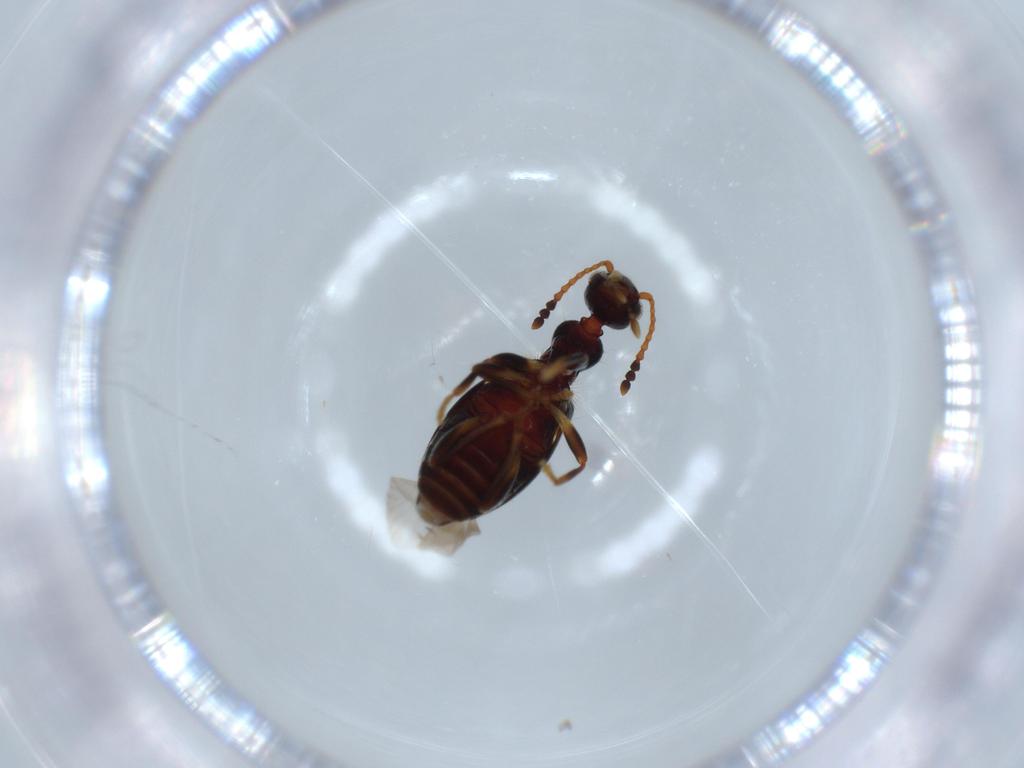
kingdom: Animalia
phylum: Arthropoda
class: Insecta
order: Coleoptera
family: Anthicidae
